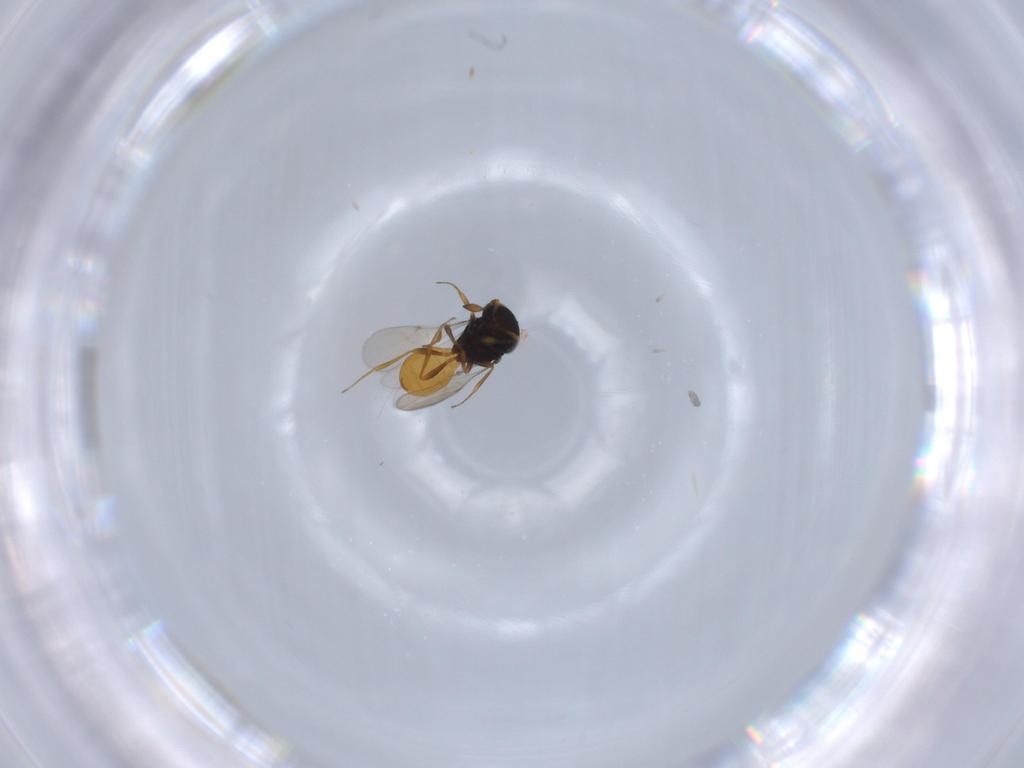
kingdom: Animalia
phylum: Arthropoda
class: Insecta
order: Hymenoptera
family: Scelionidae
